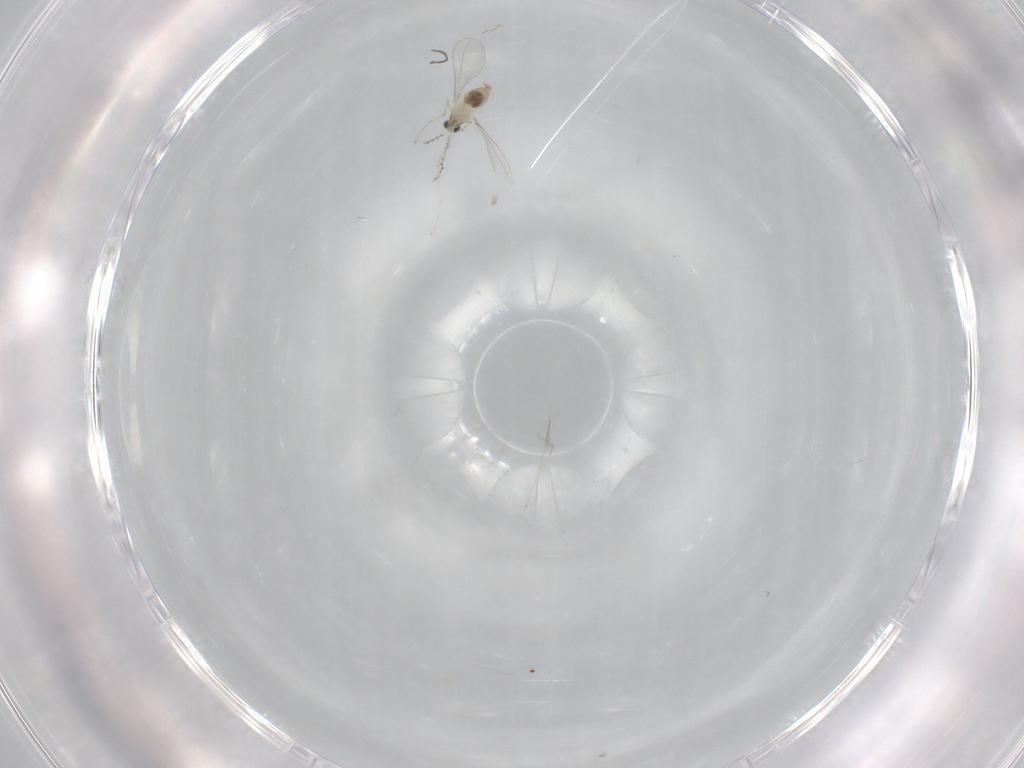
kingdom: Animalia
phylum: Arthropoda
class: Insecta
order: Diptera
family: Cecidomyiidae
